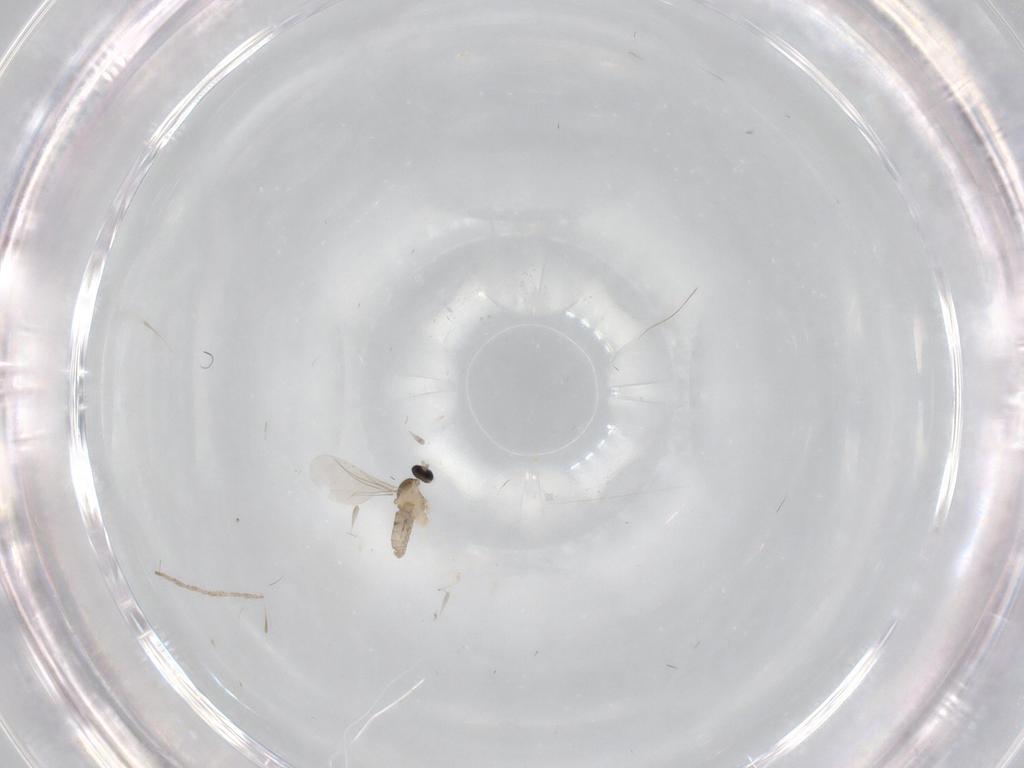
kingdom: Animalia
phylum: Arthropoda
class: Insecta
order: Diptera
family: Cecidomyiidae
